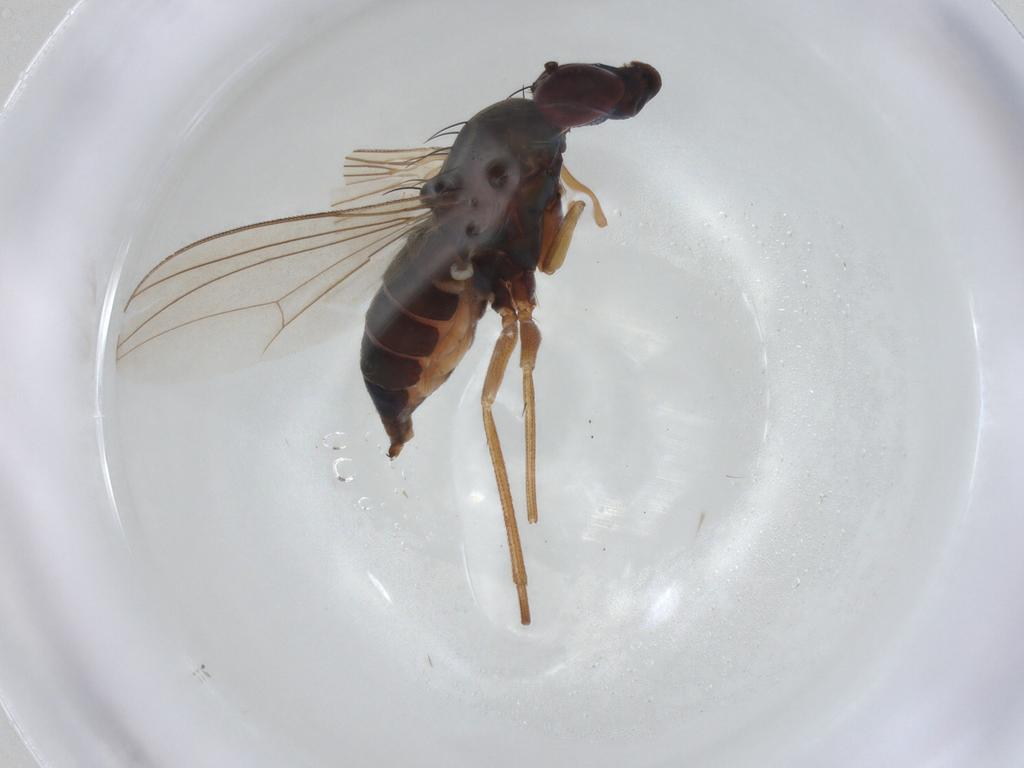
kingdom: Animalia
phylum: Arthropoda
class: Insecta
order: Diptera
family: Dolichopodidae
